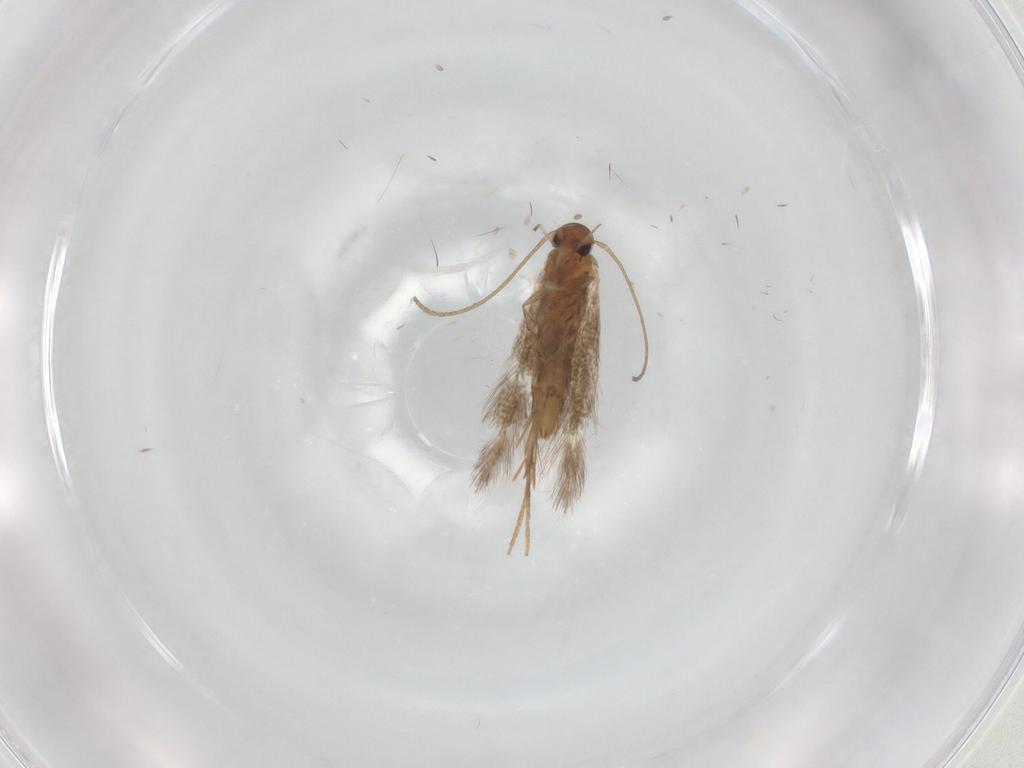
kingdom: Animalia
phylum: Arthropoda
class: Insecta
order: Lepidoptera
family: Elachistidae
